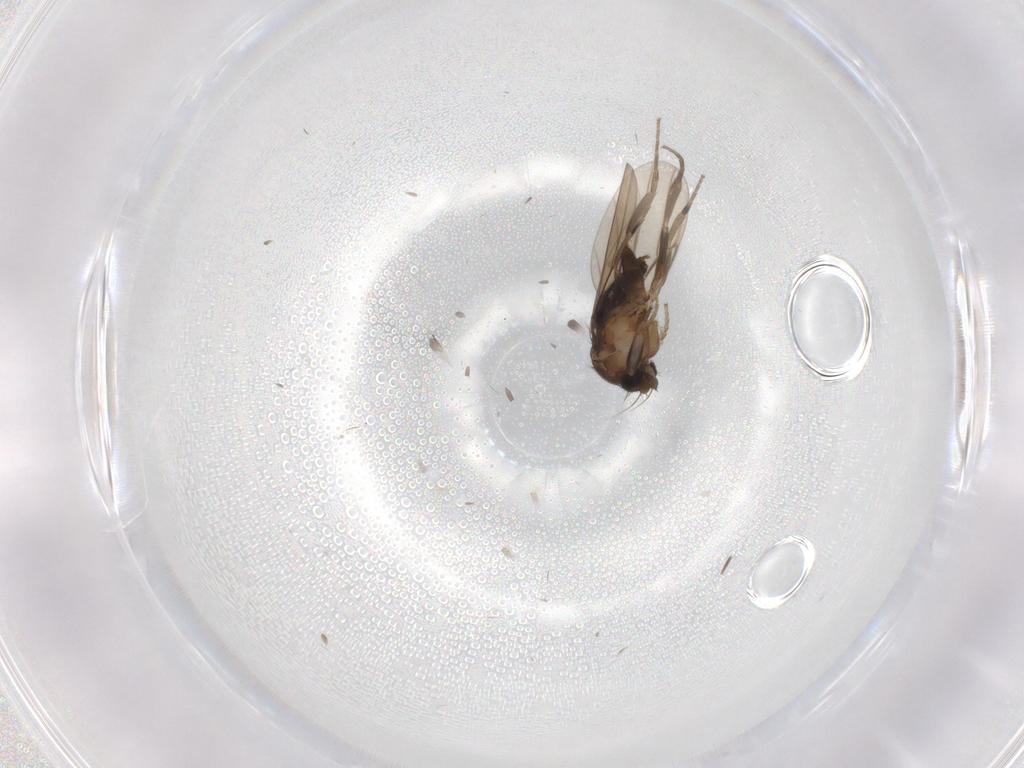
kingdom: Animalia
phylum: Arthropoda
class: Insecta
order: Diptera
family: Phoridae
